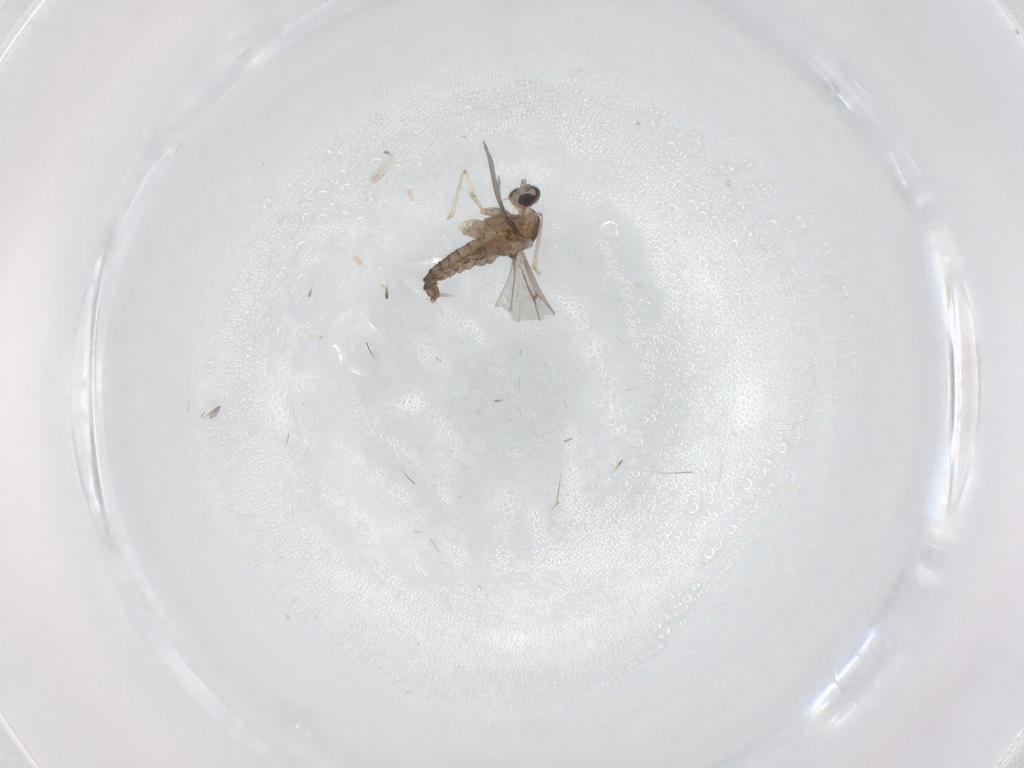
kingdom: Animalia
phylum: Arthropoda
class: Insecta
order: Diptera
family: Cecidomyiidae
